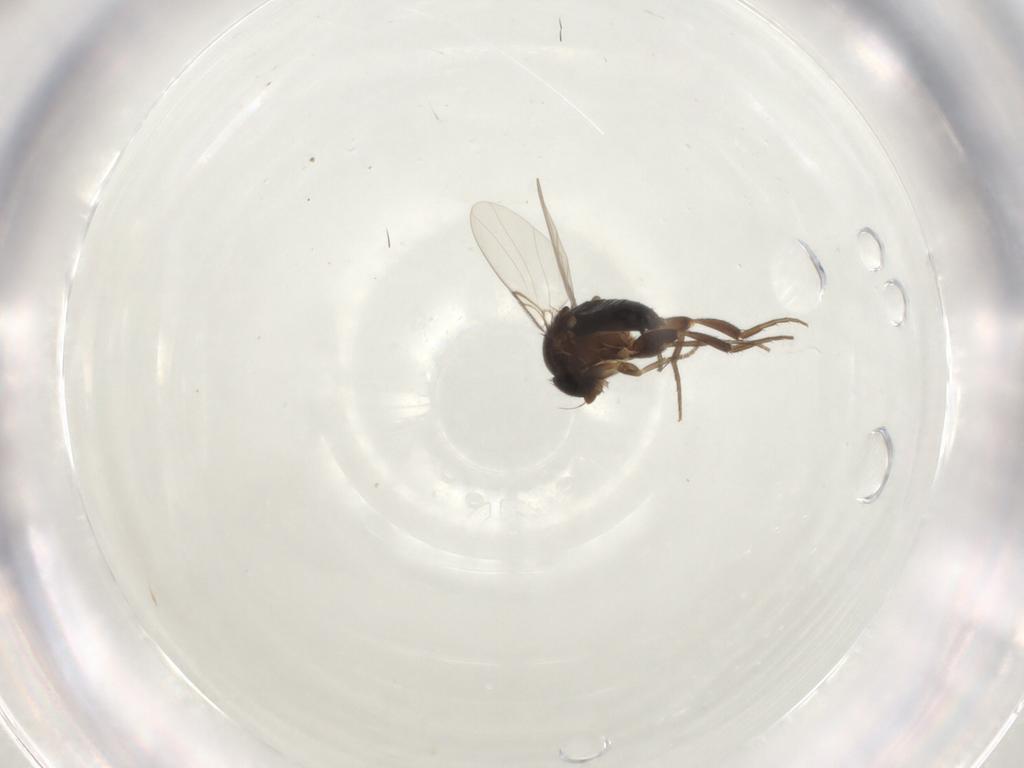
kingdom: Animalia
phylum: Arthropoda
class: Insecta
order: Diptera
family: Phoridae
